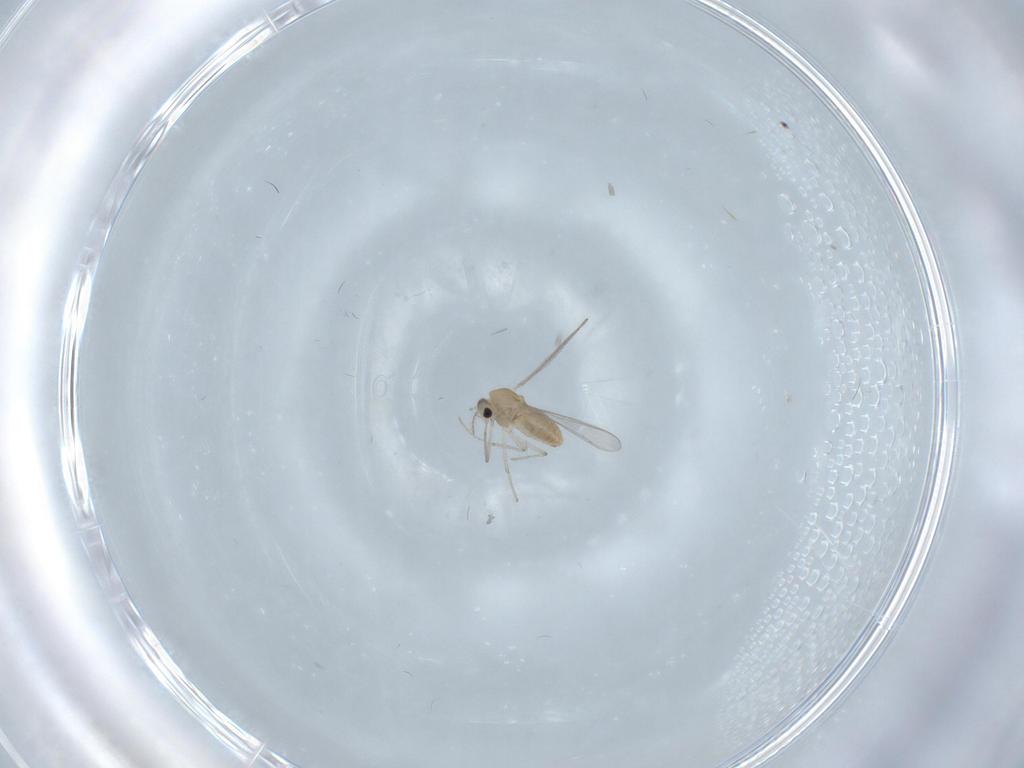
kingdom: Animalia
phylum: Arthropoda
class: Insecta
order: Diptera
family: Chironomidae
